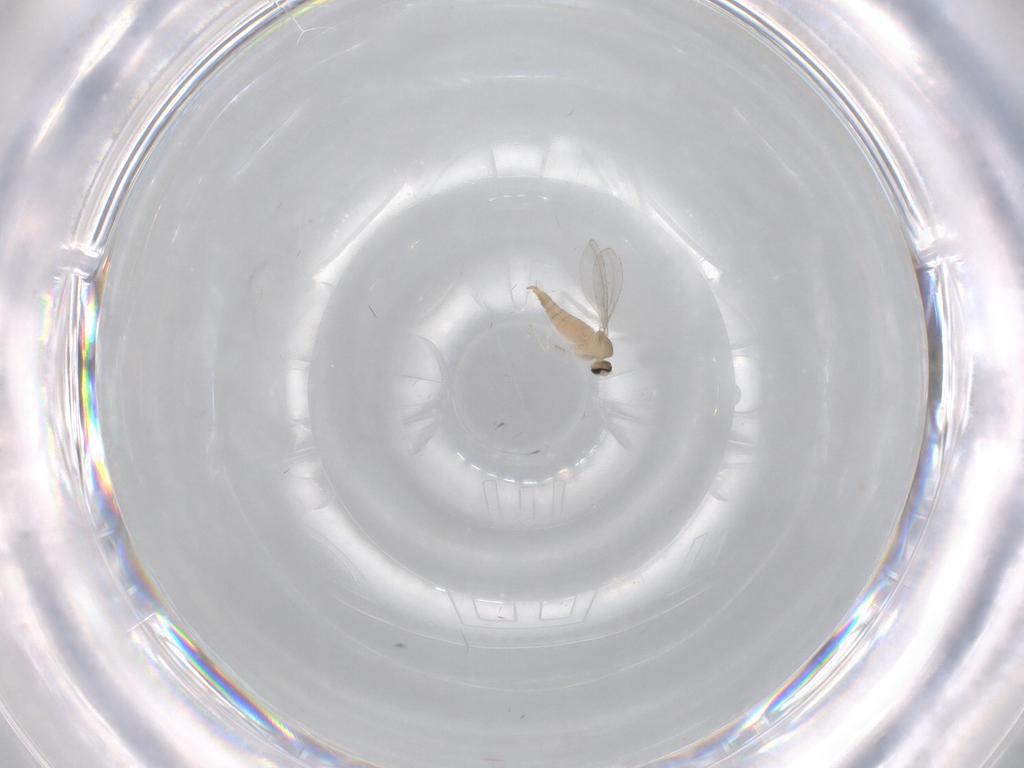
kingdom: Animalia
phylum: Arthropoda
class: Insecta
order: Diptera
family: Cecidomyiidae
